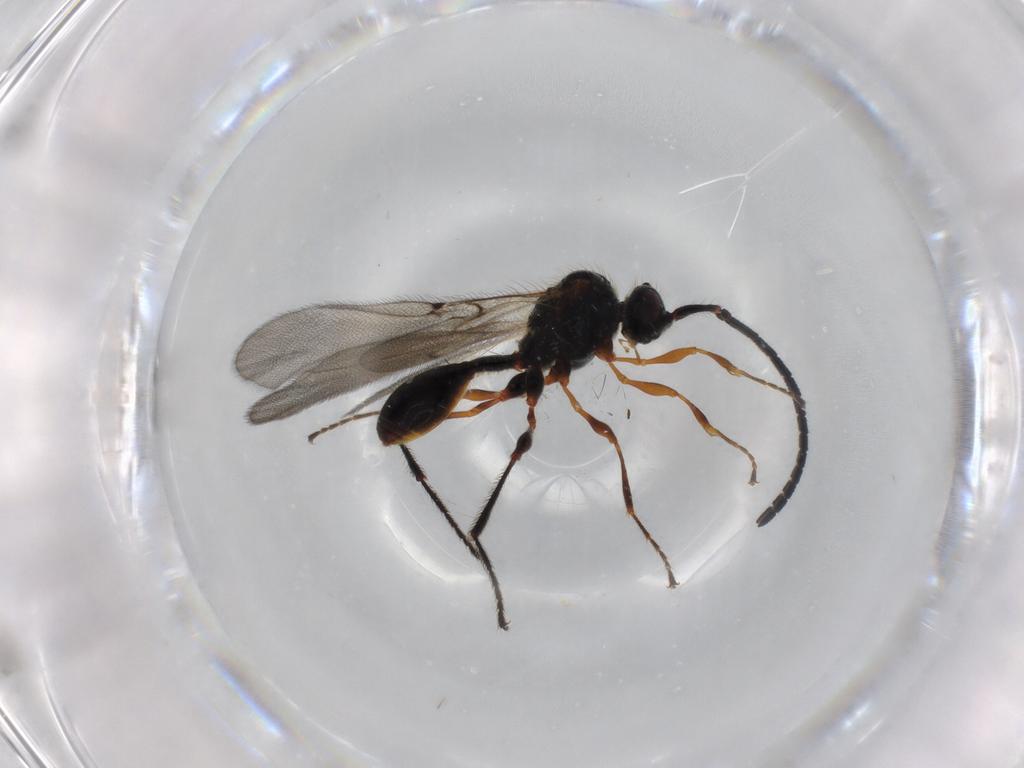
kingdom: Animalia
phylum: Arthropoda
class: Insecta
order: Hymenoptera
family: Diapriidae
